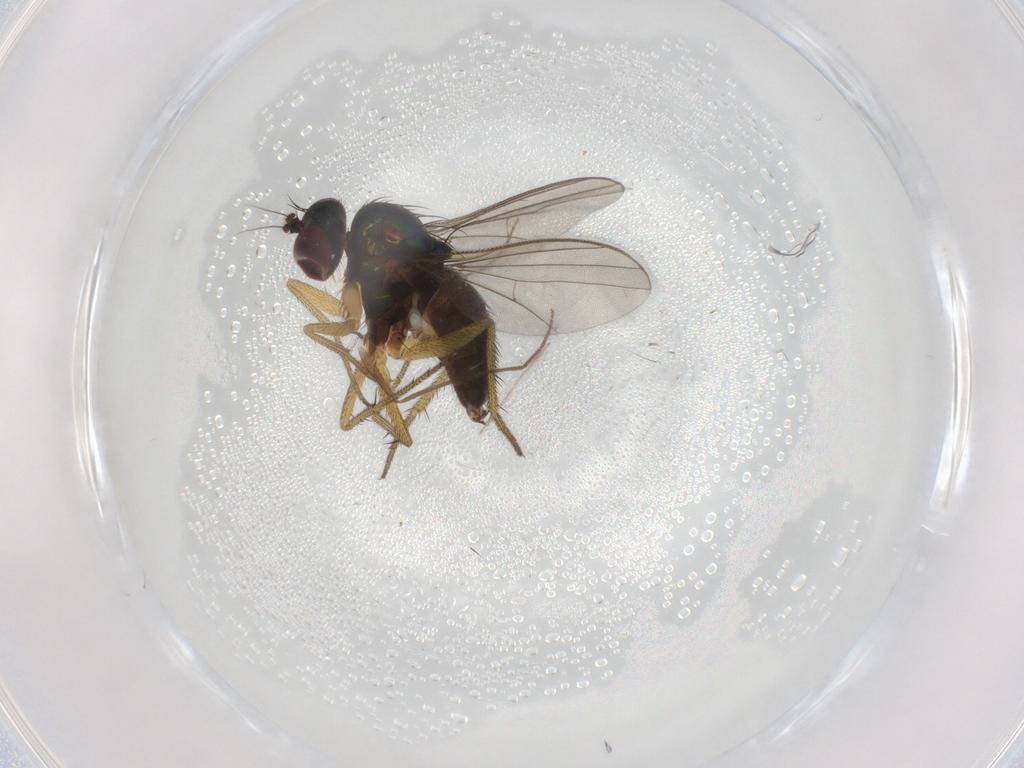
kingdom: Animalia
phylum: Arthropoda
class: Insecta
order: Diptera
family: Chironomidae
